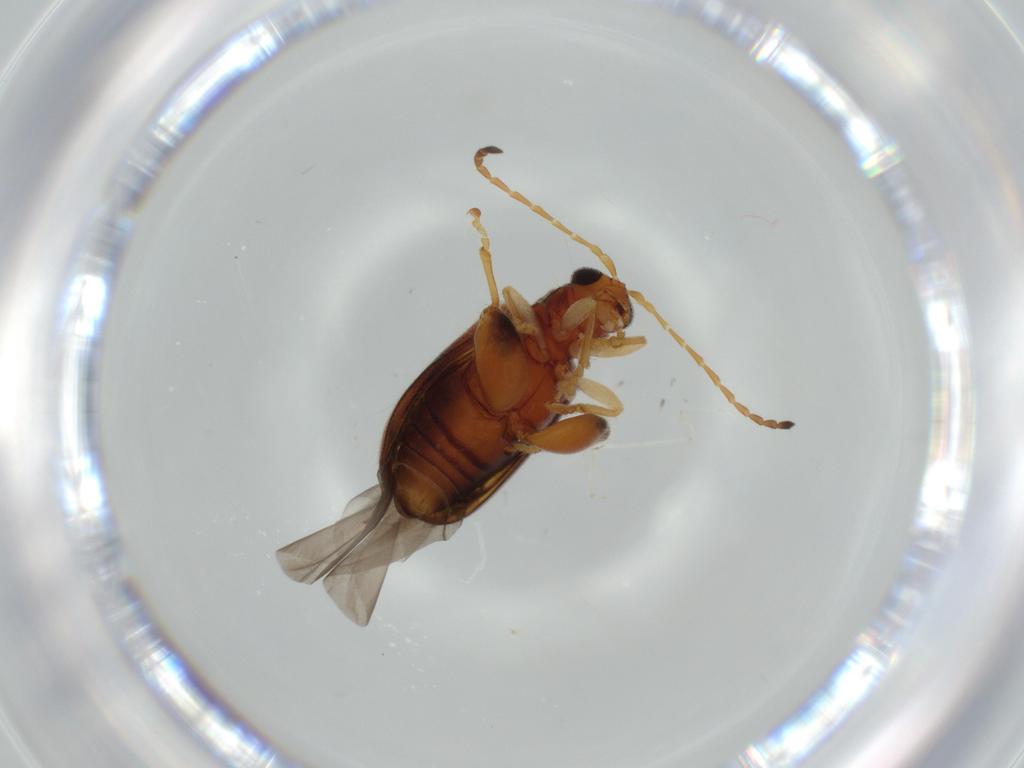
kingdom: Animalia
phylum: Arthropoda
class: Insecta
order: Coleoptera
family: Chrysomelidae
